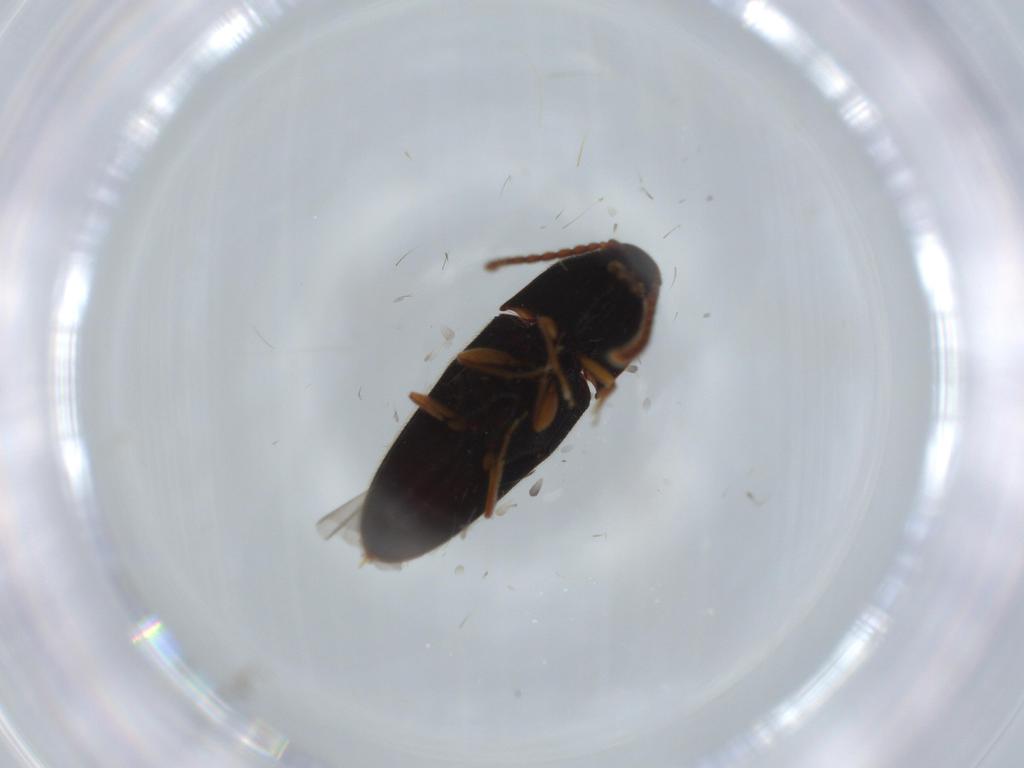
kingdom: Animalia
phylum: Arthropoda
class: Insecta
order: Coleoptera
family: Elateridae
